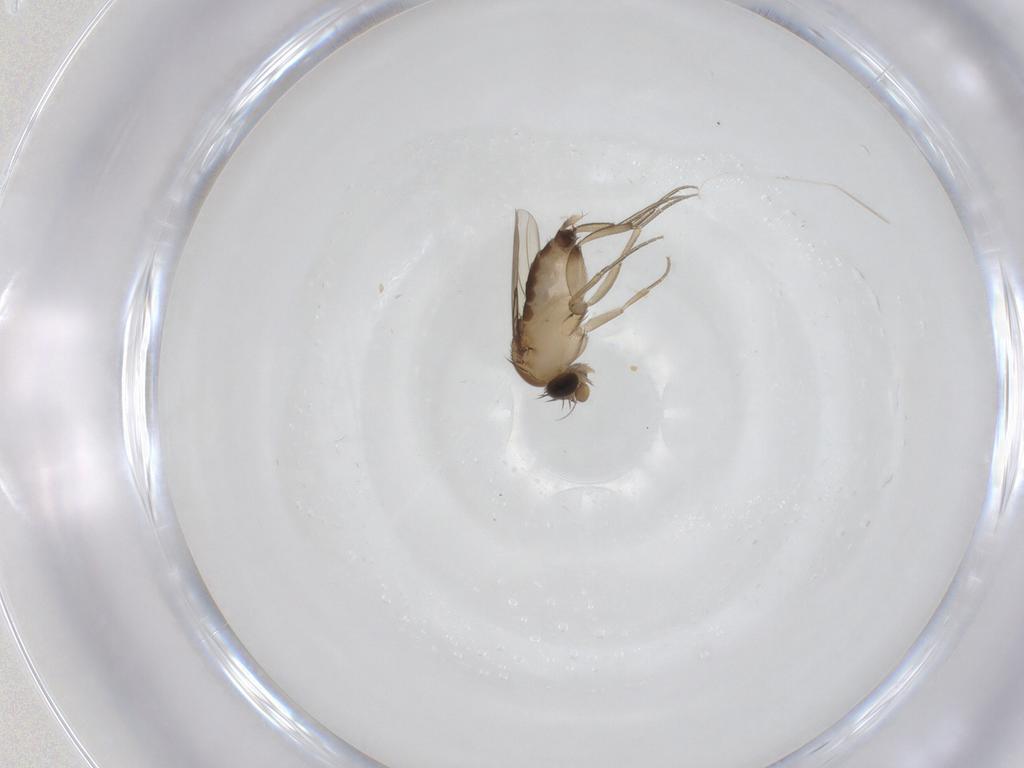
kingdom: Animalia
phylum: Arthropoda
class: Insecta
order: Diptera
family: Phoridae
